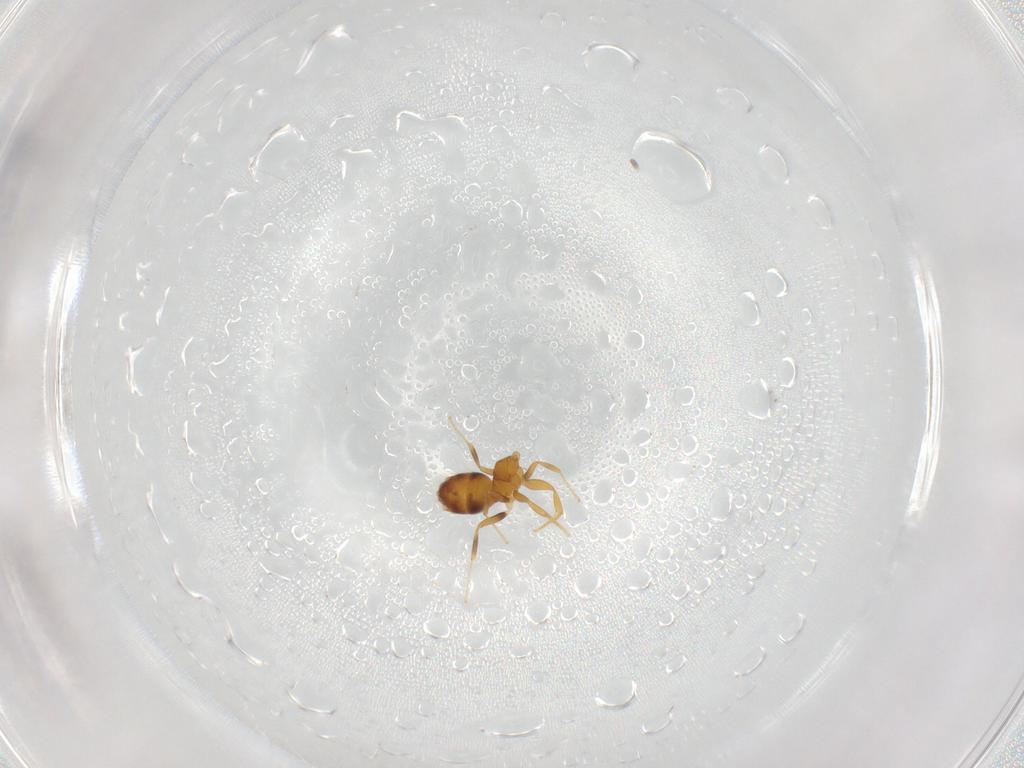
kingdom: Animalia
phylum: Arthropoda
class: Insecta
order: Hymenoptera
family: Formicidae
